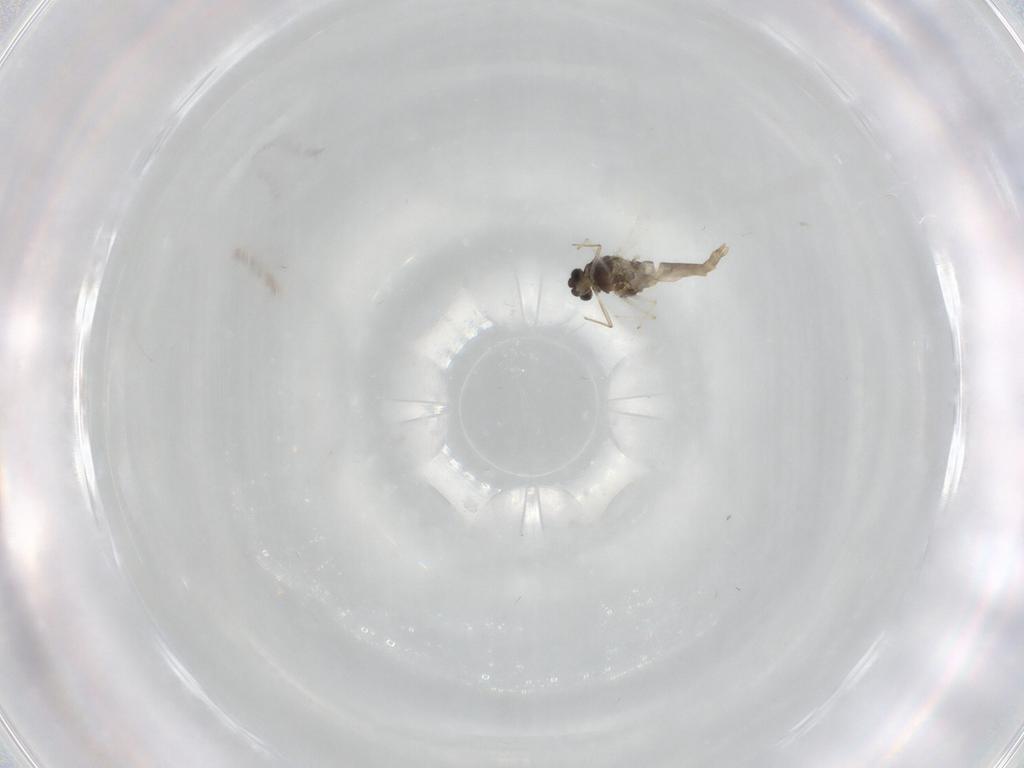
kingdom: Animalia
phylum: Arthropoda
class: Insecta
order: Diptera
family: Chironomidae
